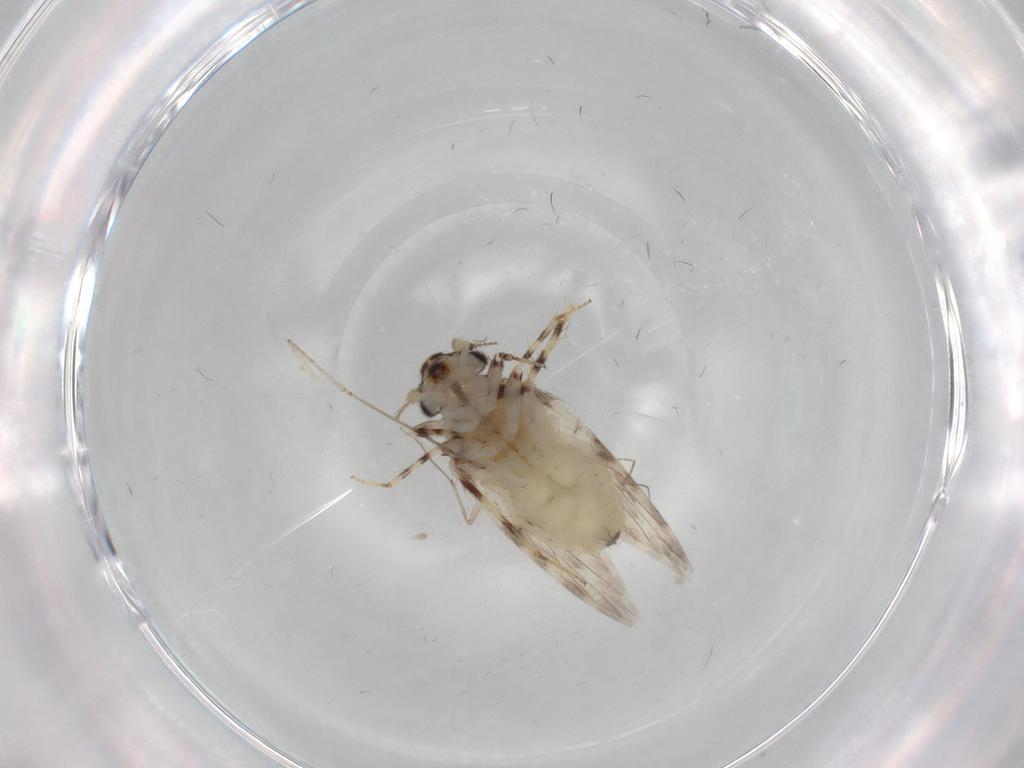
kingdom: Animalia
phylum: Arthropoda
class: Insecta
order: Psocodea
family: Lepidopsocidae
